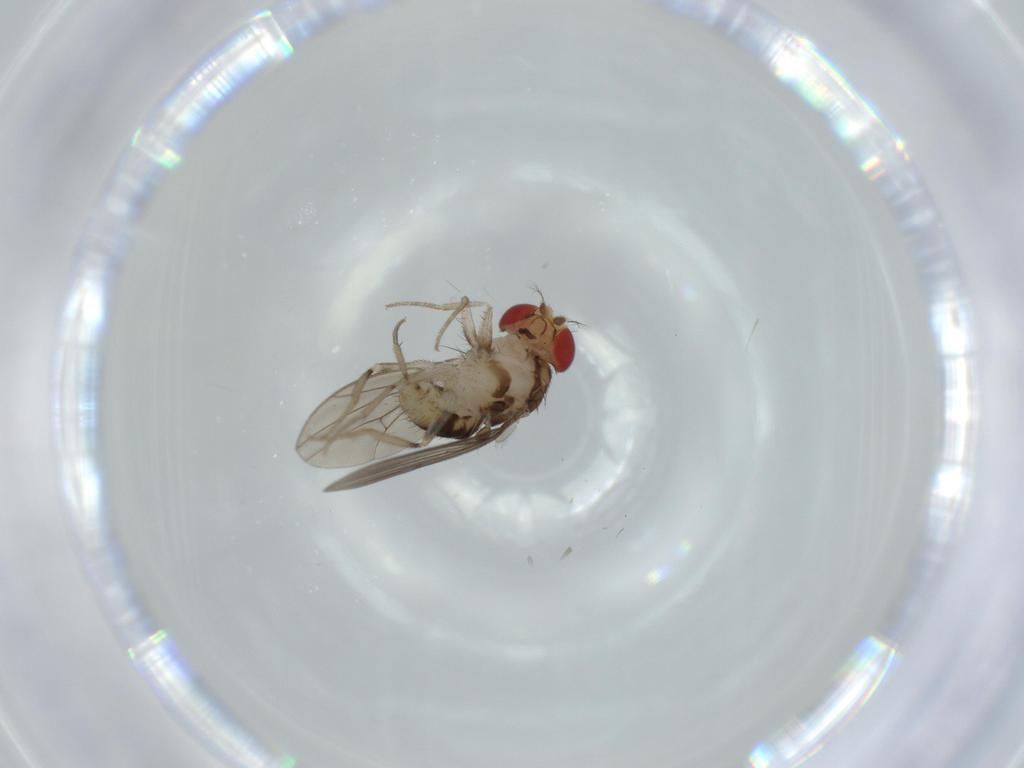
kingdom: Animalia
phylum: Arthropoda
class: Insecta
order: Diptera
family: Drosophilidae
